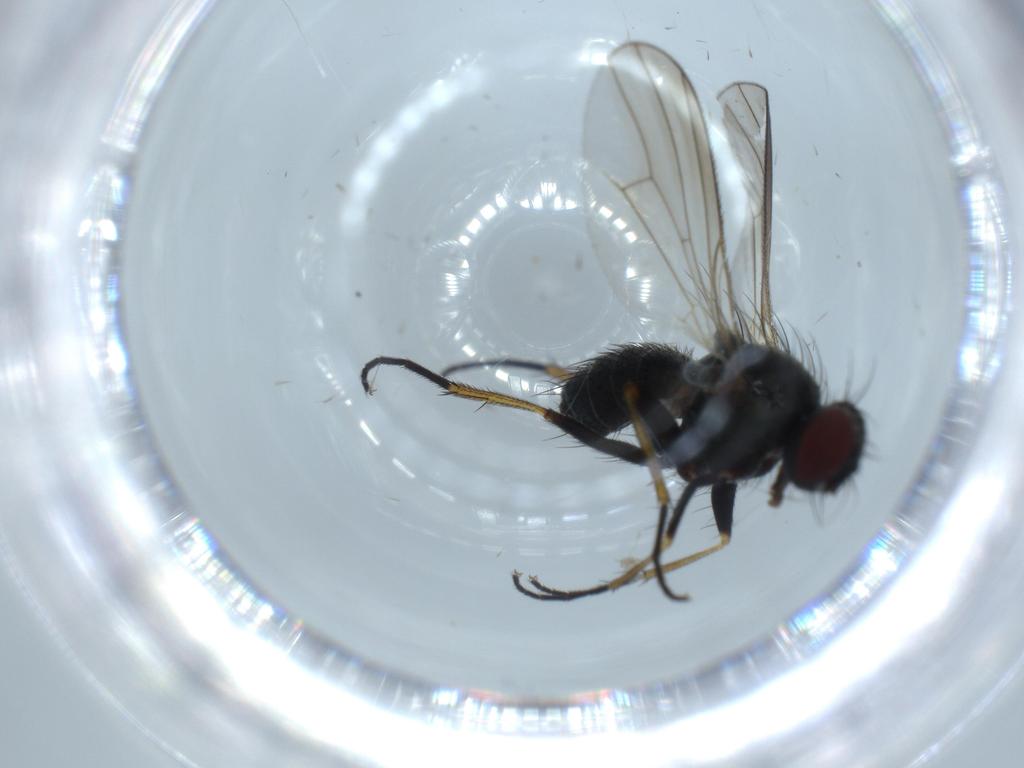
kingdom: Animalia
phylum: Arthropoda
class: Insecta
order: Diptera
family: Muscidae
